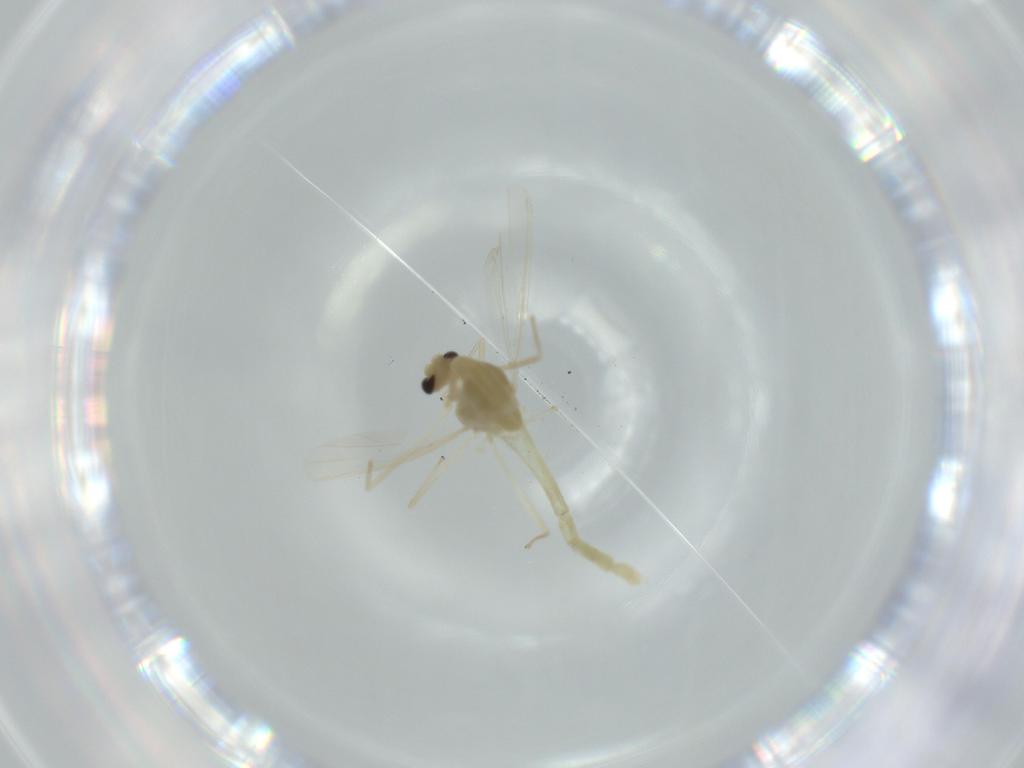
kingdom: Animalia
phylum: Arthropoda
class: Insecta
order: Diptera
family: Chironomidae
